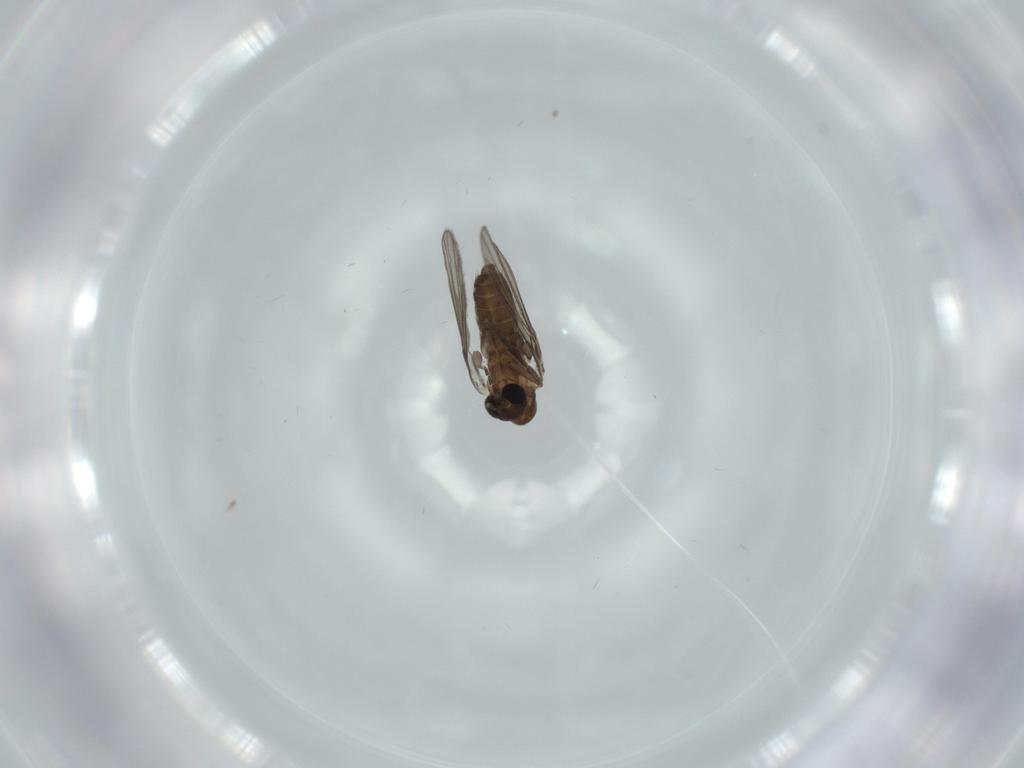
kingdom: Animalia
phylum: Arthropoda
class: Insecta
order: Diptera
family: Psychodidae
